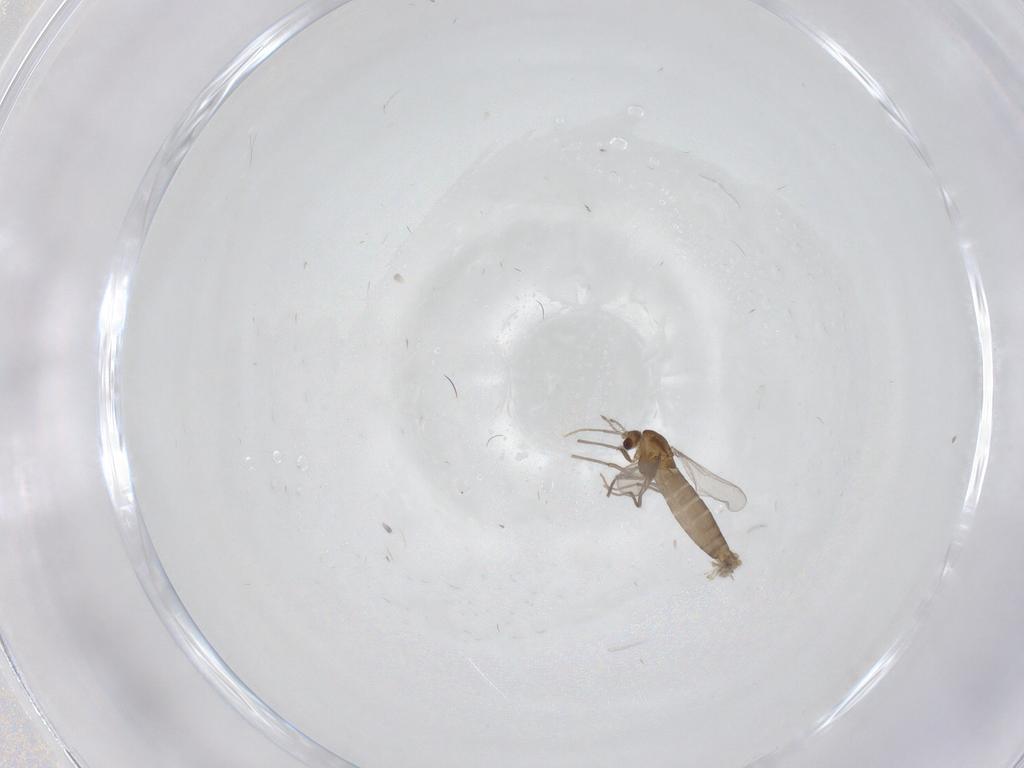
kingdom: Animalia
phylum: Arthropoda
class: Insecta
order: Diptera
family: Chironomidae
